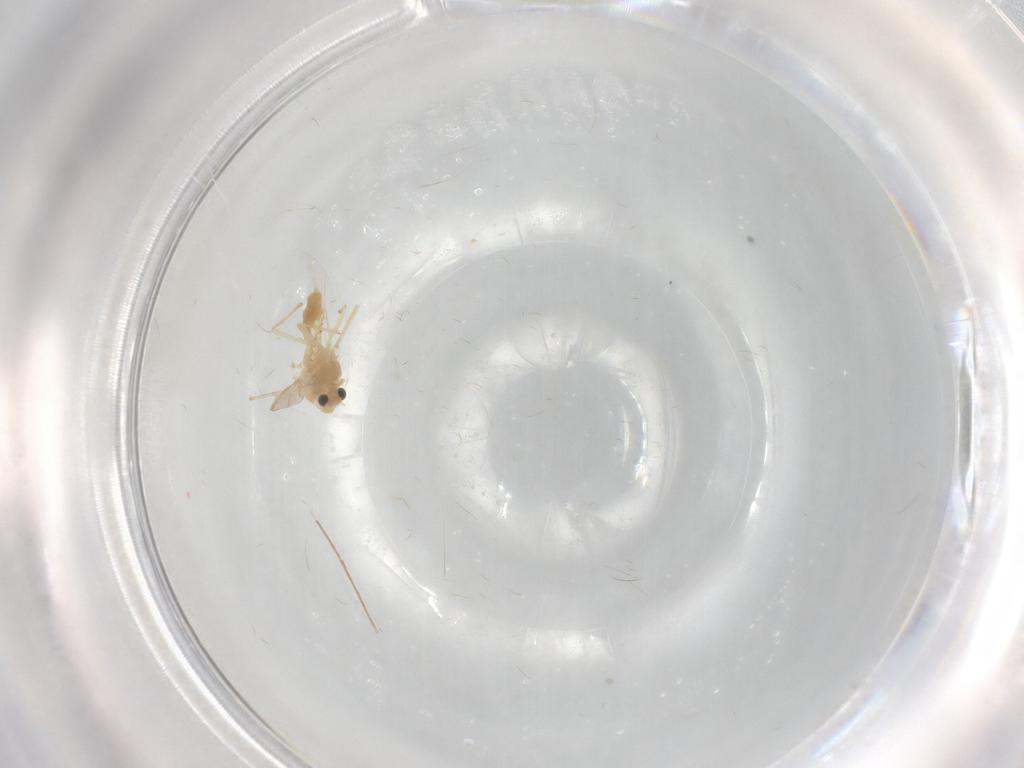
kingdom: Animalia
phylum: Arthropoda
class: Insecta
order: Diptera
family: Chironomidae
